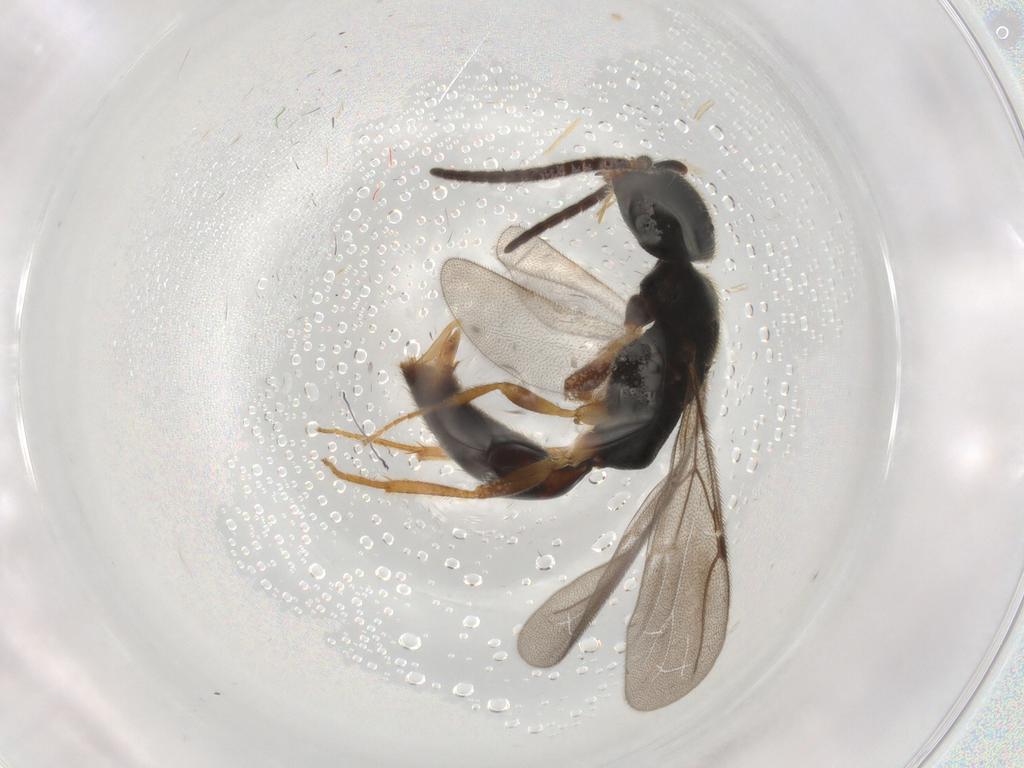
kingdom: Animalia
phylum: Arthropoda
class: Insecta
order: Hymenoptera
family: Bethylidae
